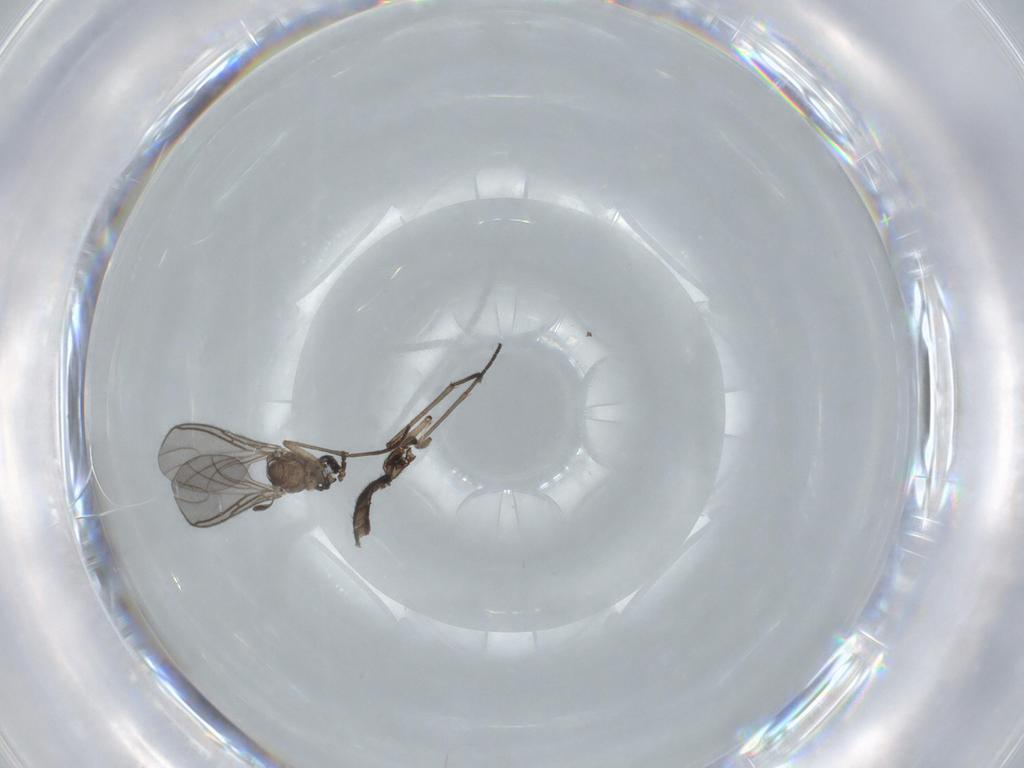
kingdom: Animalia
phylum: Arthropoda
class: Insecta
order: Diptera
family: Sciaridae
